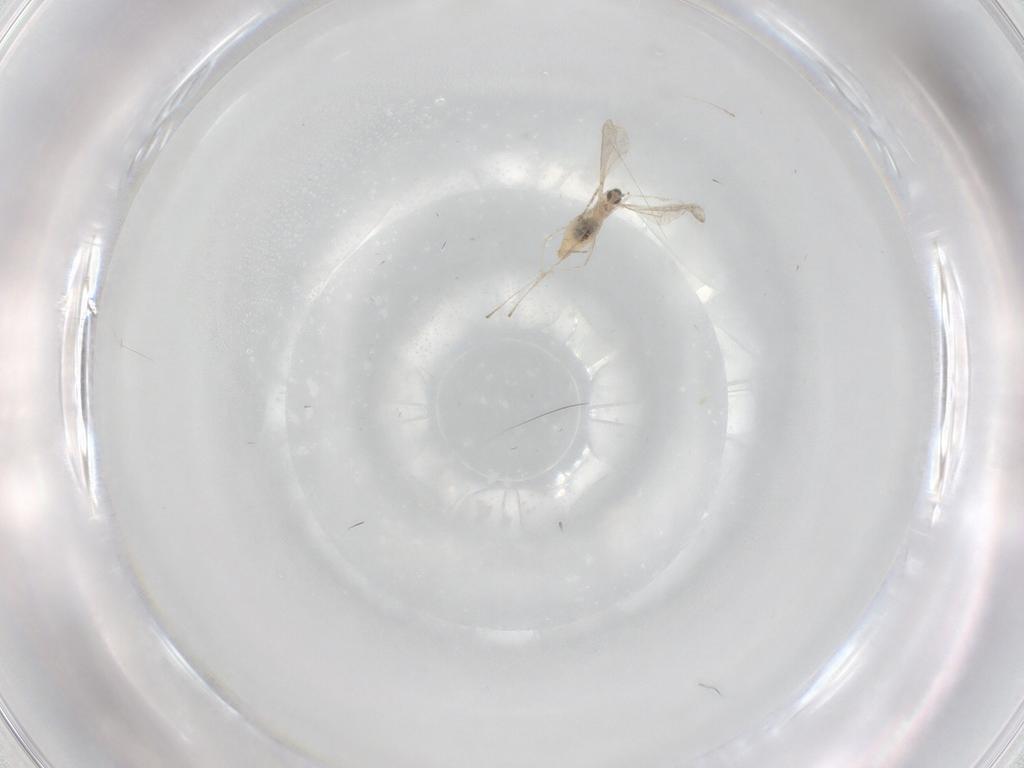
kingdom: Animalia
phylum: Arthropoda
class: Insecta
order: Diptera
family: Cecidomyiidae
